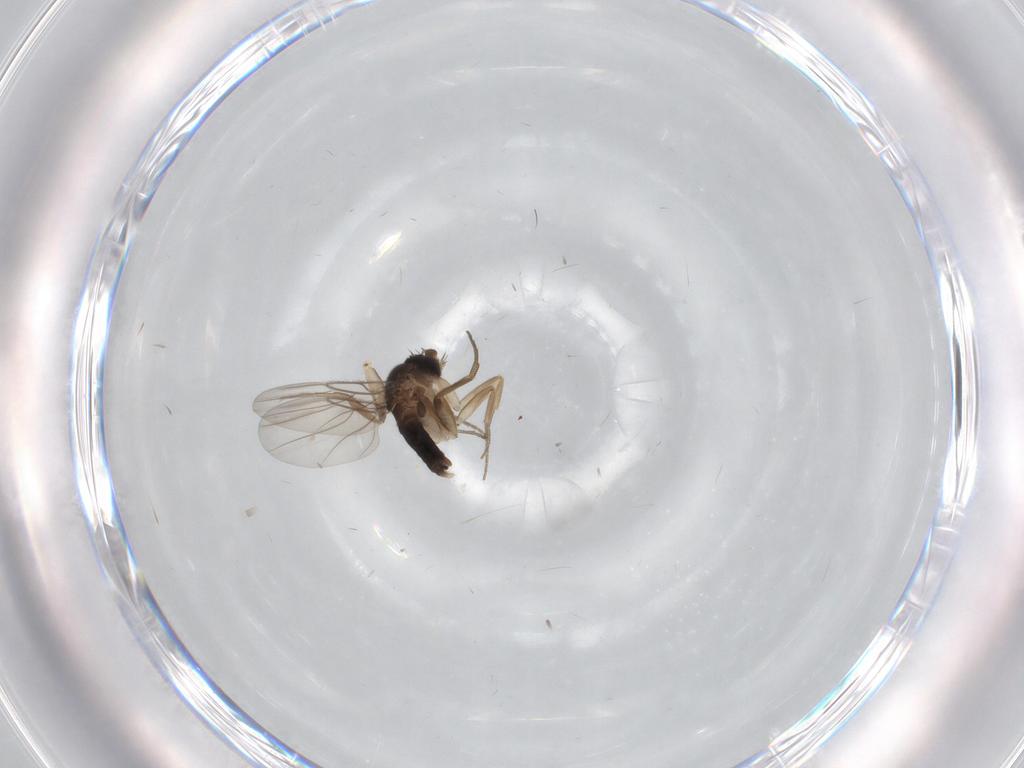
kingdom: Animalia
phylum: Arthropoda
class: Insecta
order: Diptera
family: Phoridae
